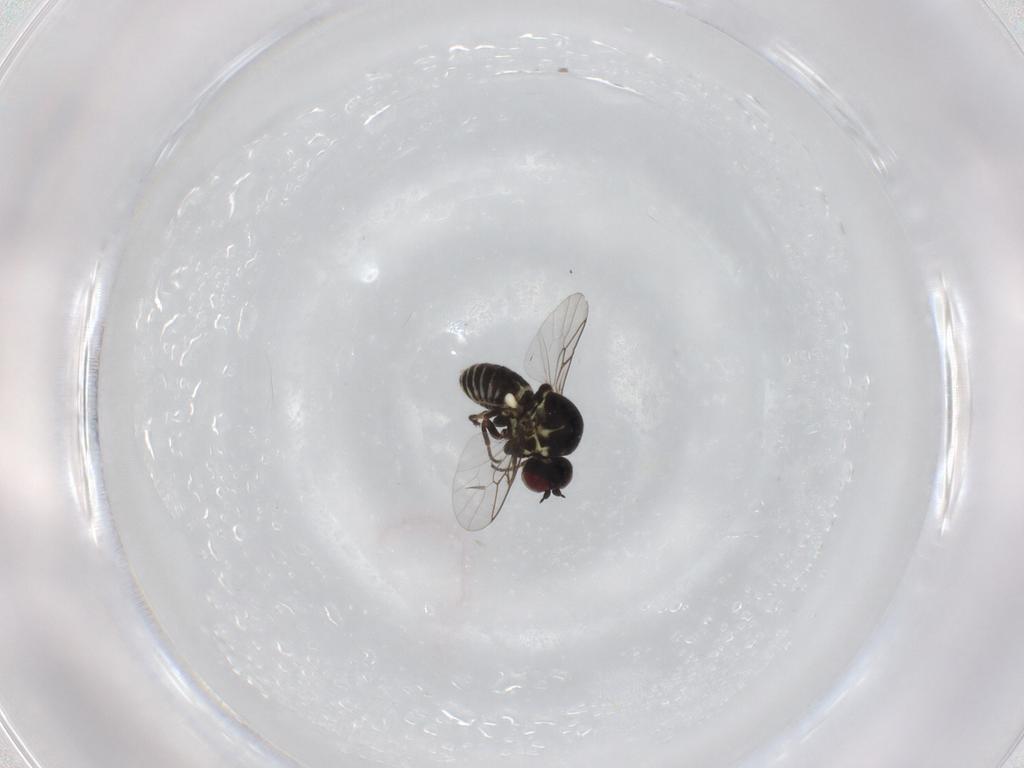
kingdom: Animalia
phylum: Arthropoda
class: Insecta
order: Diptera
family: Mythicomyiidae
